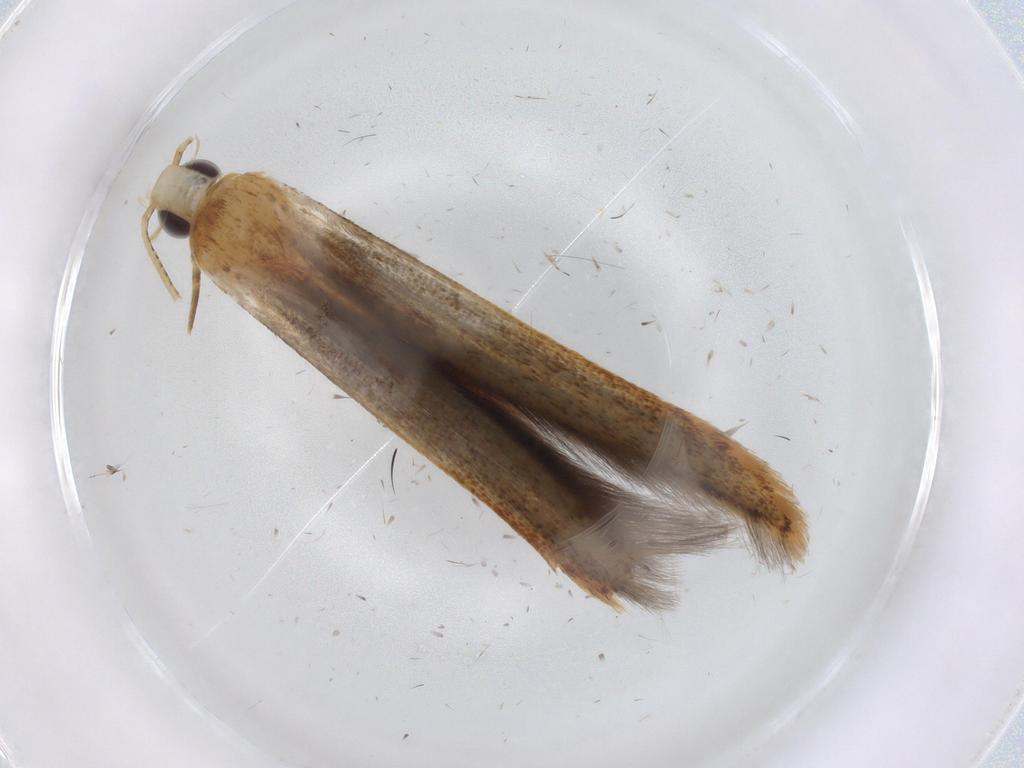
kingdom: Animalia
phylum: Arthropoda
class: Insecta
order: Lepidoptera
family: Batrachedridae
